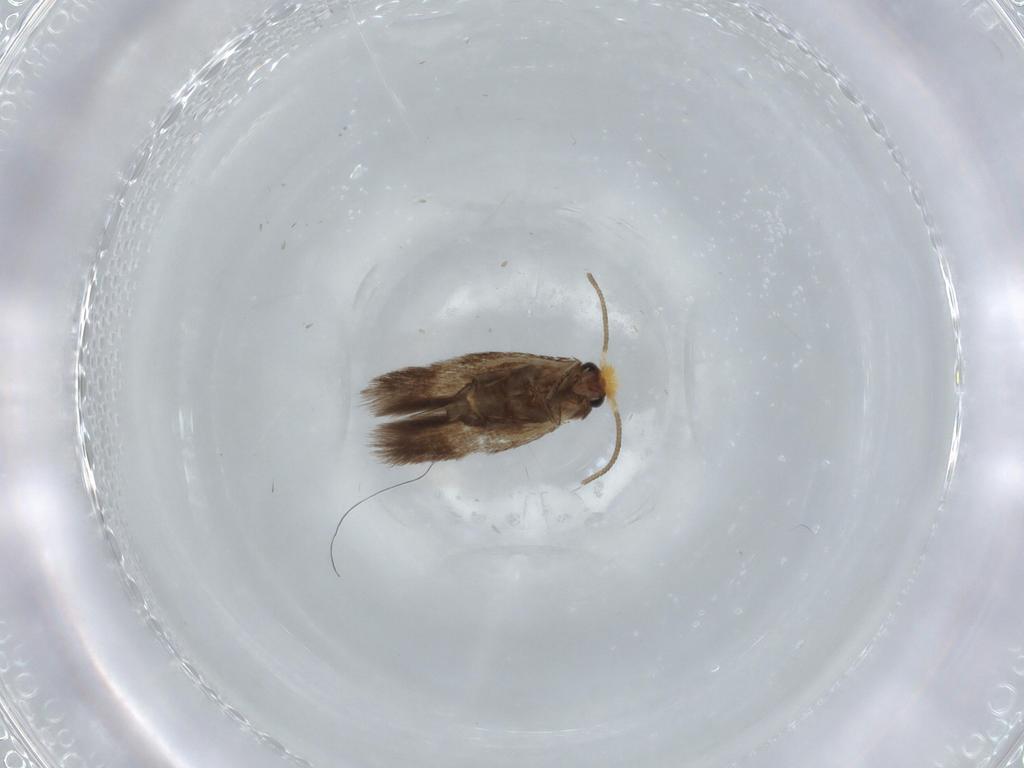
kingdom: Animalia
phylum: Arthropoda
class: Insecta
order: Lepidoptera
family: Nepticulidae
